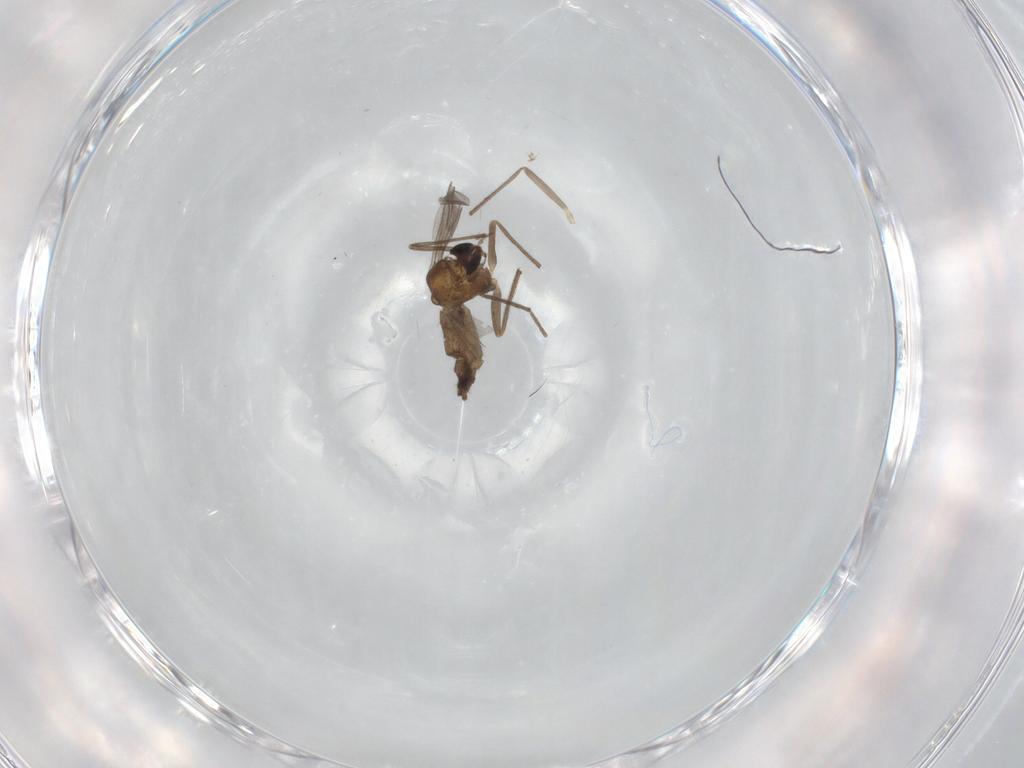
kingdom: Animalia
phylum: Arthropoda
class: Insecta
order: Diptera
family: Chironomidae
